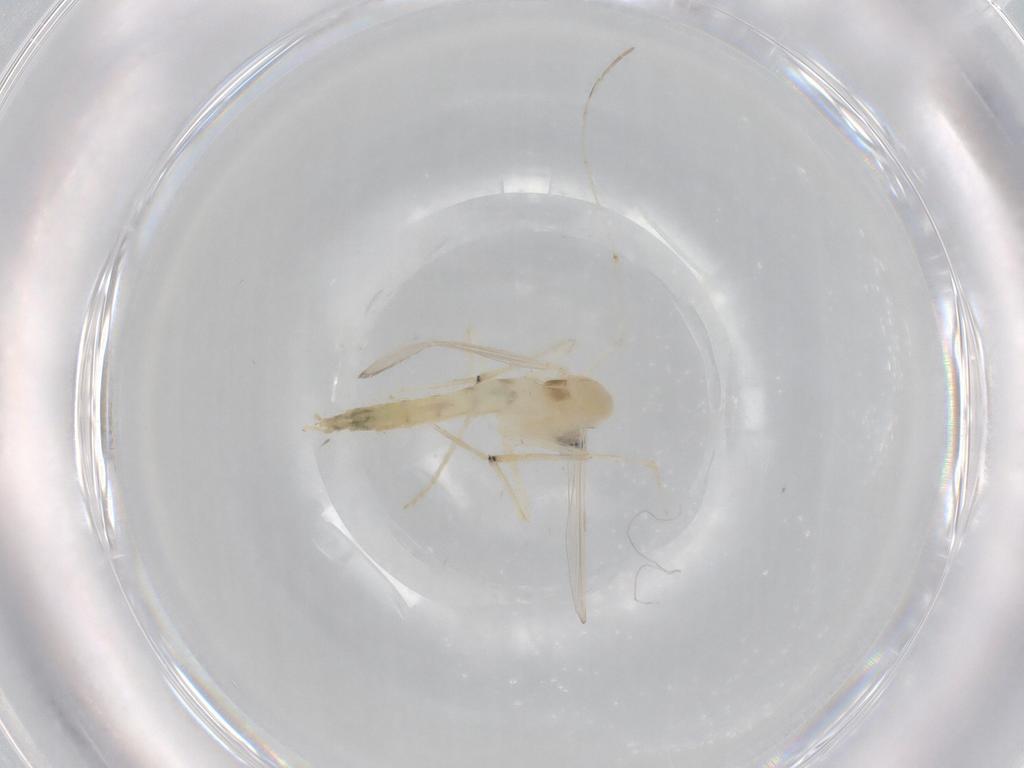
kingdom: Animalia
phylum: Arthropoda
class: Insecta
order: Diptera
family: Chironomidae
